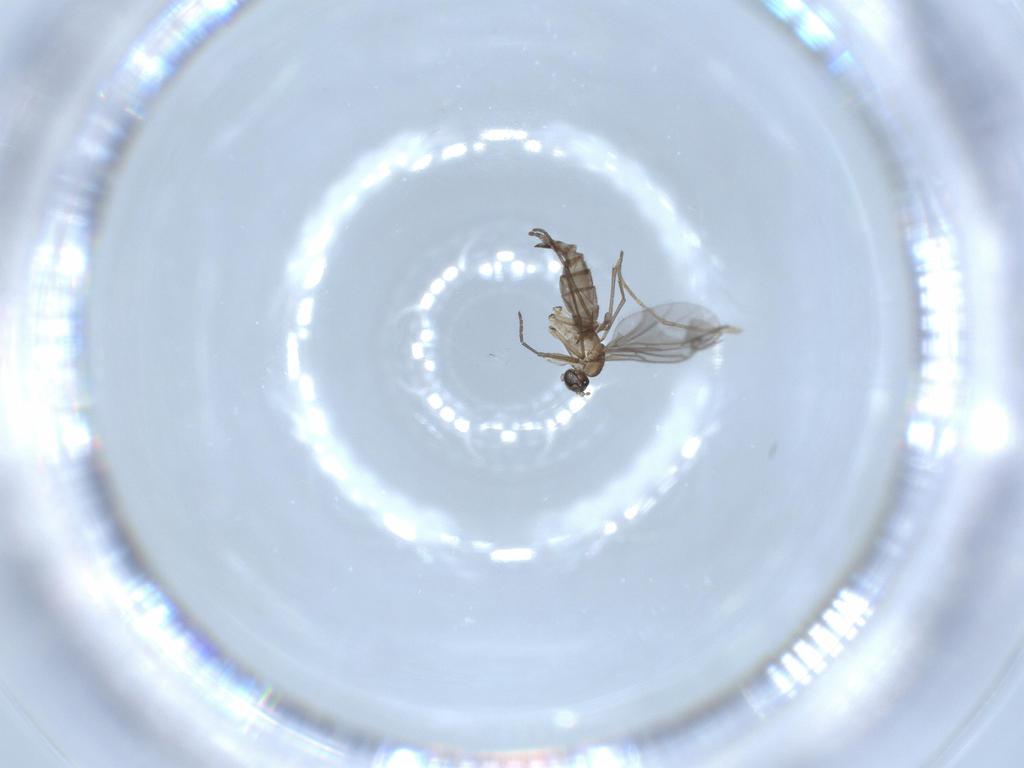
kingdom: Animalia
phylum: Arthropoda
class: Insecta
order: Diptera
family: Sciaridae
